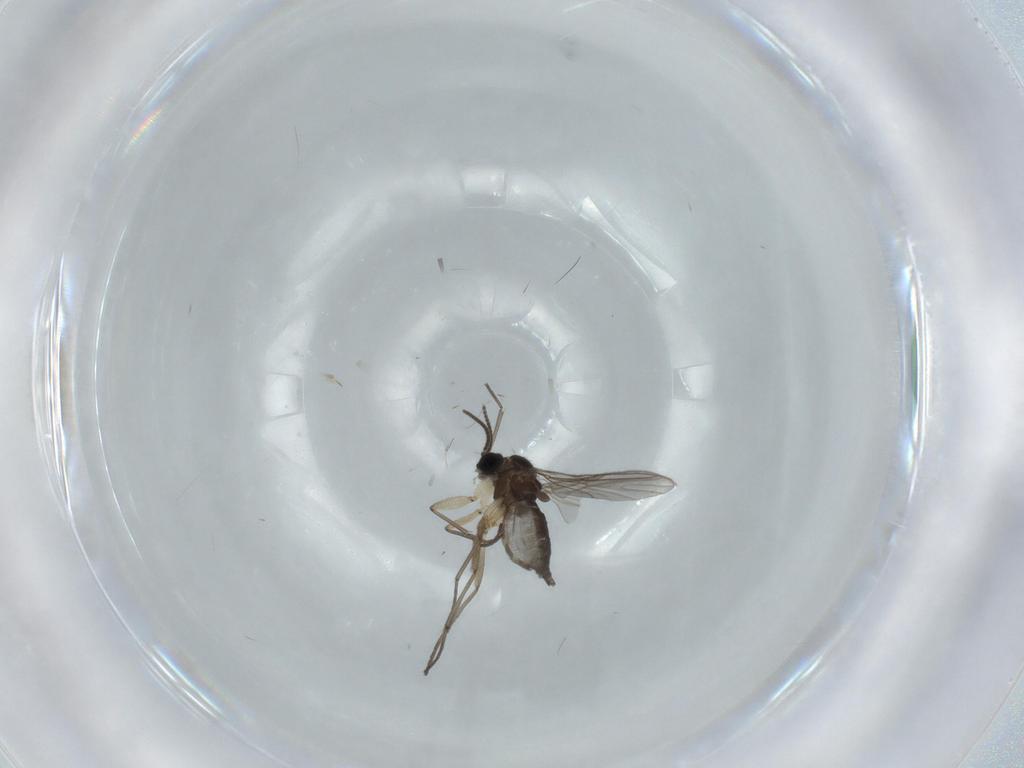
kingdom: Animalia
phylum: Arthropoda
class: Insecta
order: Diptera
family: Sciaridae
